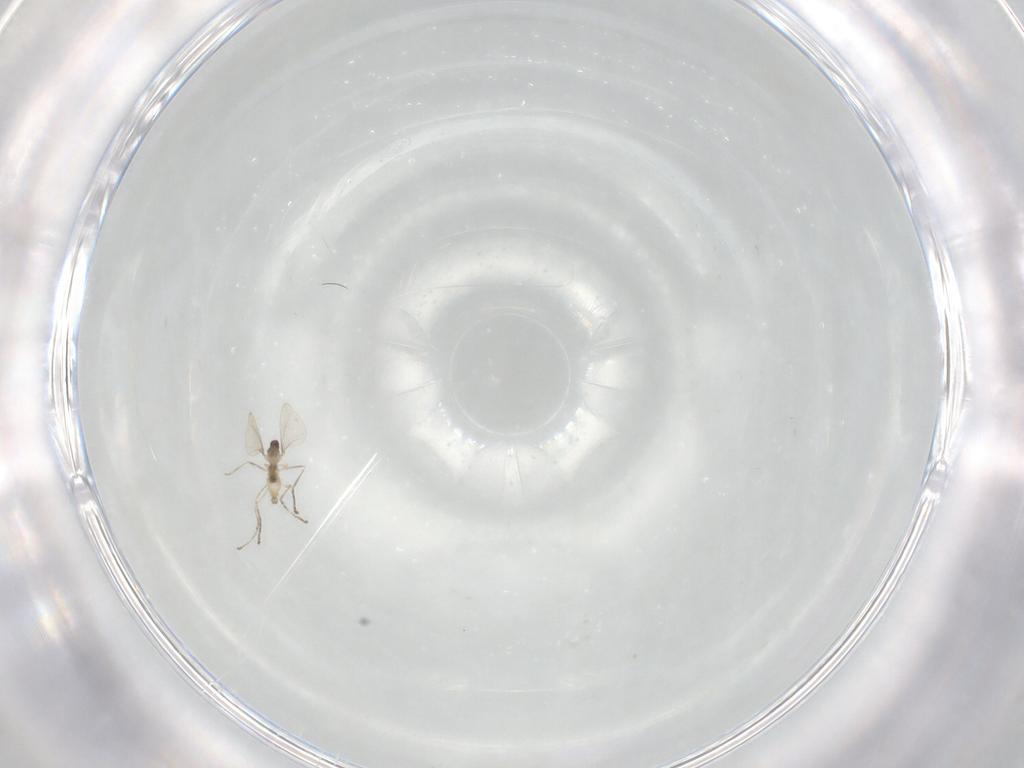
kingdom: Animalia
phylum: Arthropoda
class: Insecta
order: Diptera
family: Cecidomyiidae
